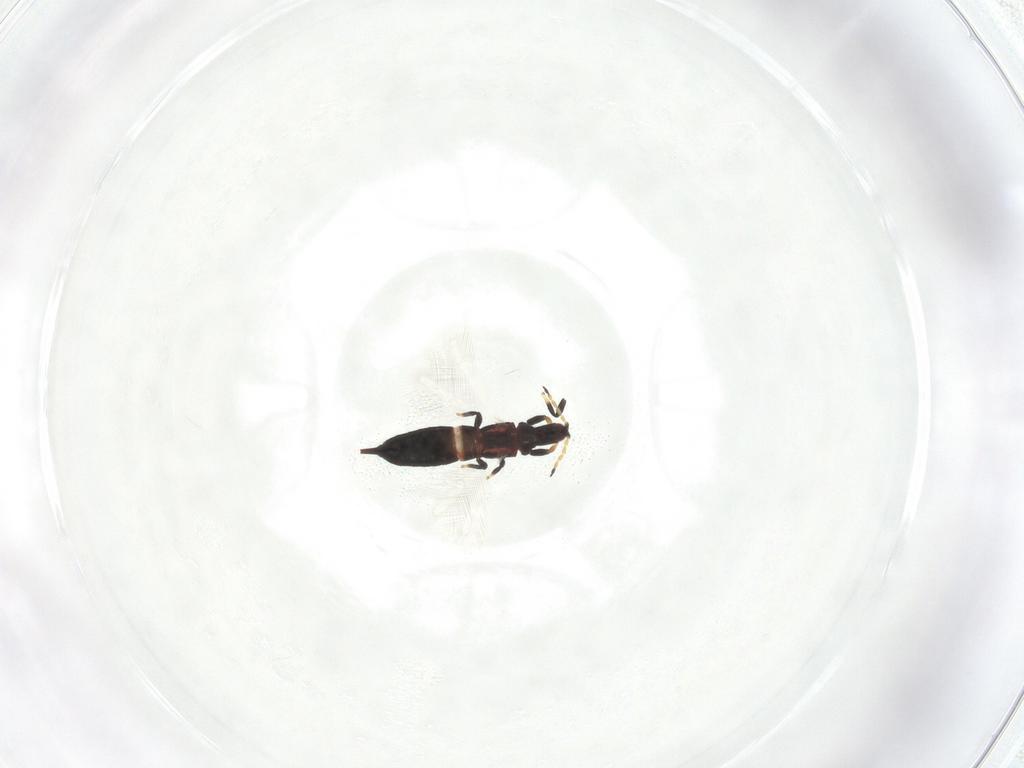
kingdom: Animalia
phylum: Arthropoda
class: Insecta
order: Thysanoptera
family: Phlaeothripidae
